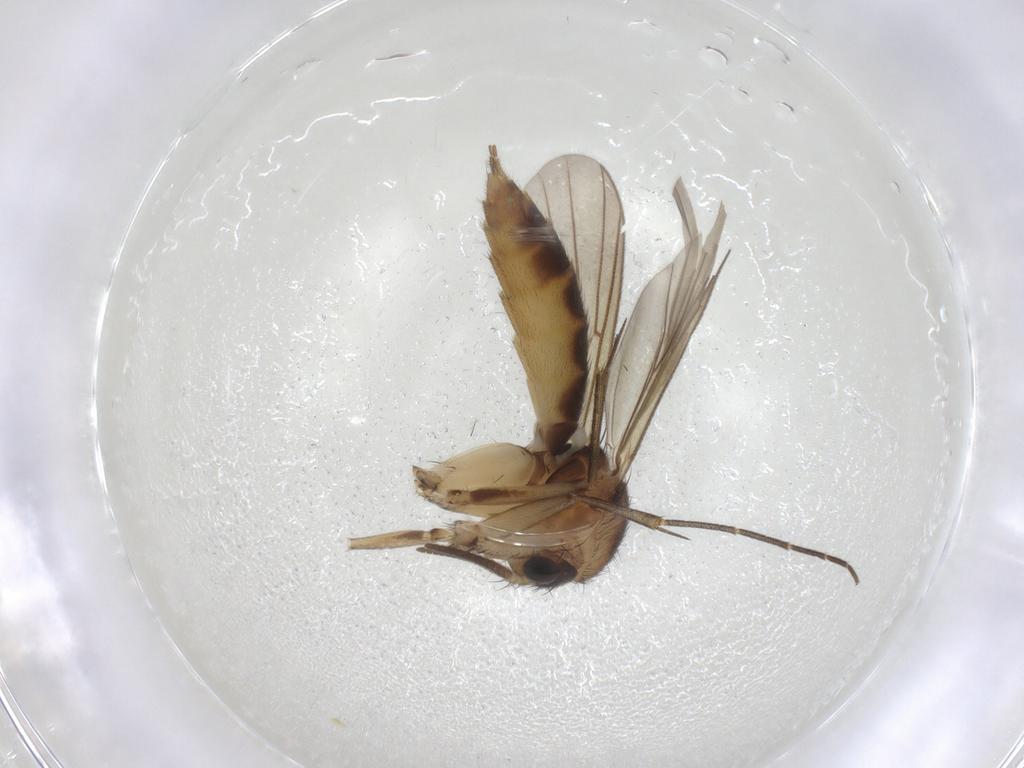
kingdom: Animalia
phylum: Arthropoda
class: Insecta
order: Diptera
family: Mycetophilidae
